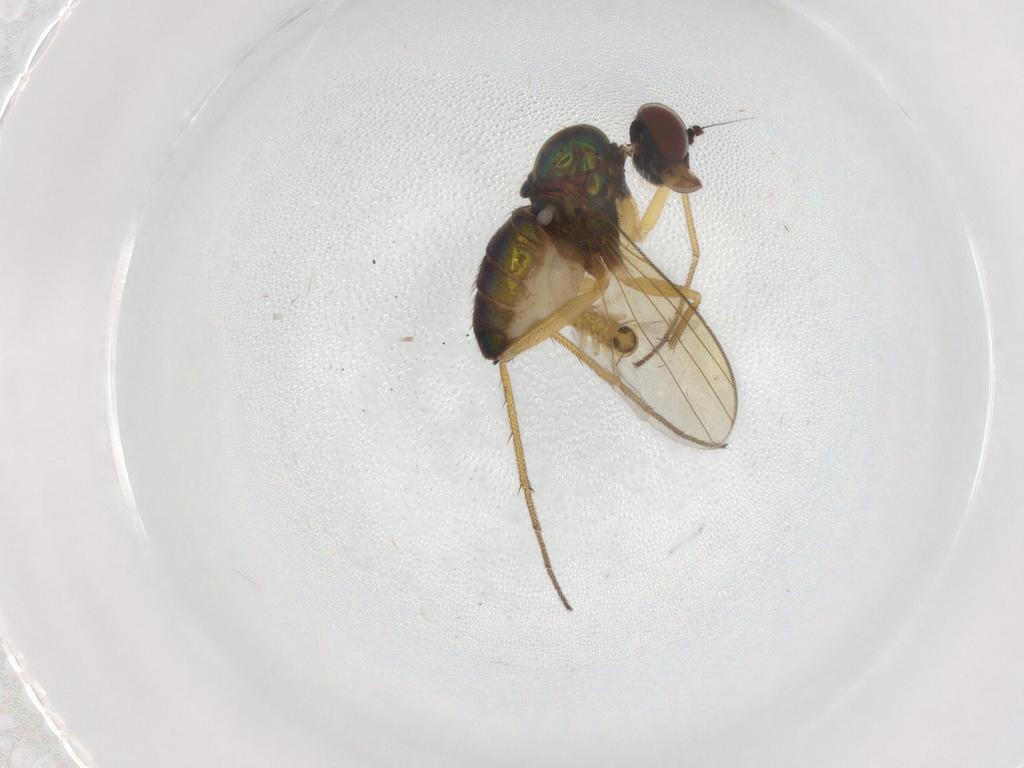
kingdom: Animalia
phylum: Arthropoda
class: Insecta
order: Diptera
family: Dolichopodidae
